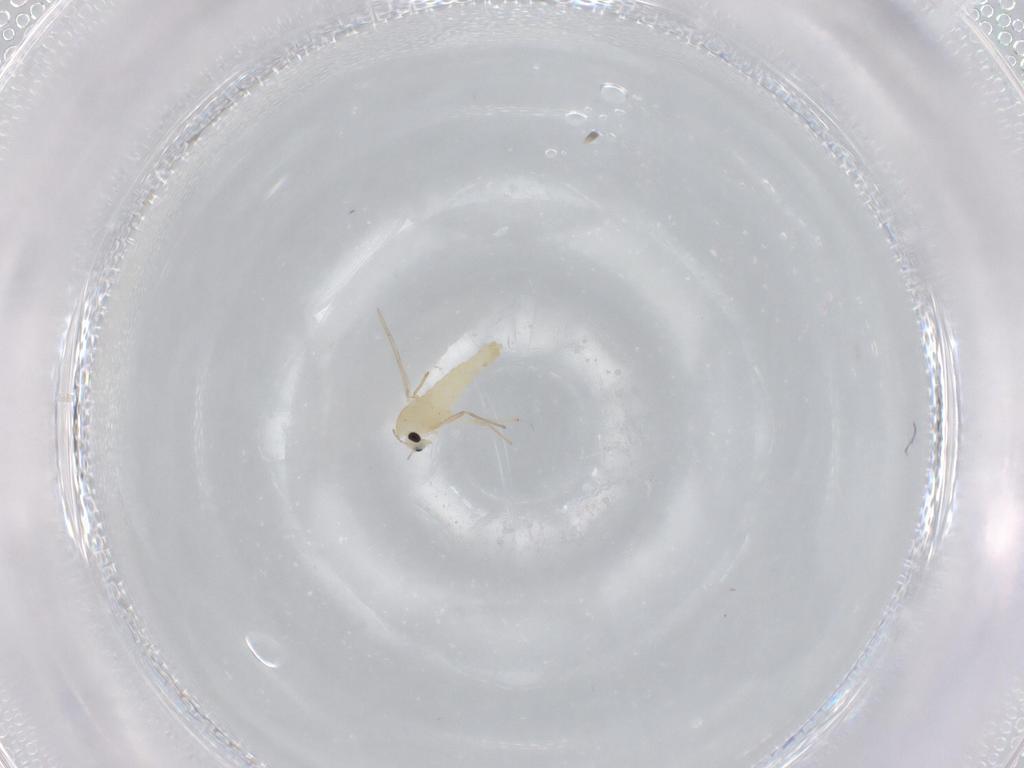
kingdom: Animalia
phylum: Arthropoda
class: Insecta
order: Diptera
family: Chironomidae
